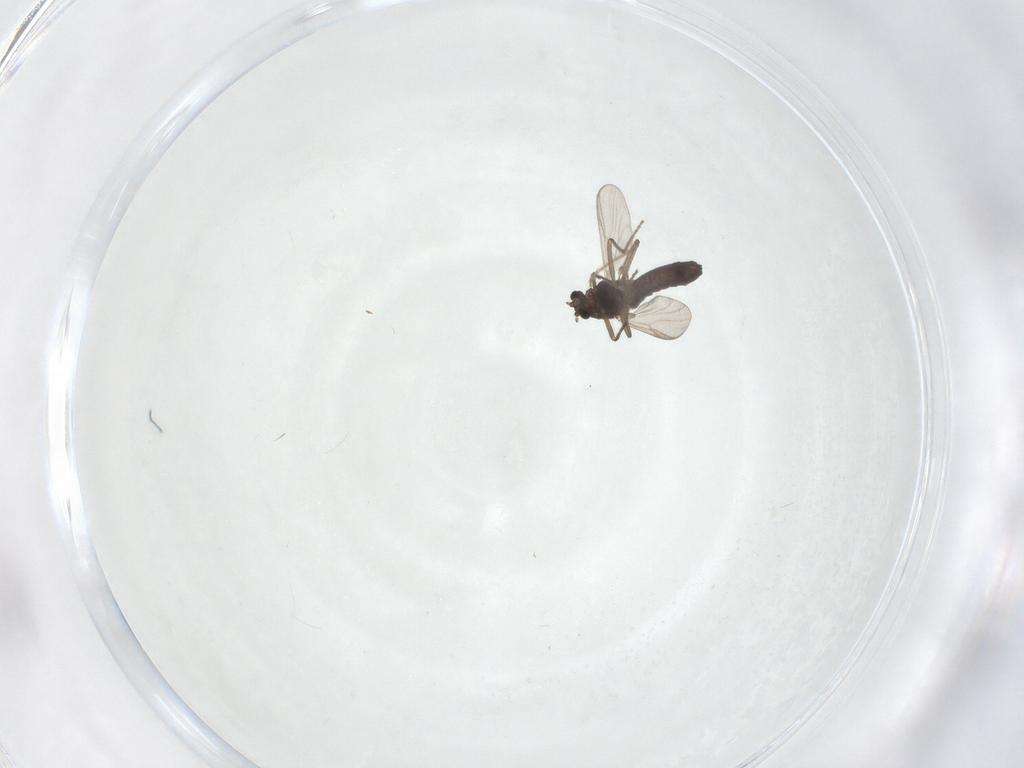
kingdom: Animalia
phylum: Arthropoda
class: Insecta
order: Diptera
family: Chironomidae
